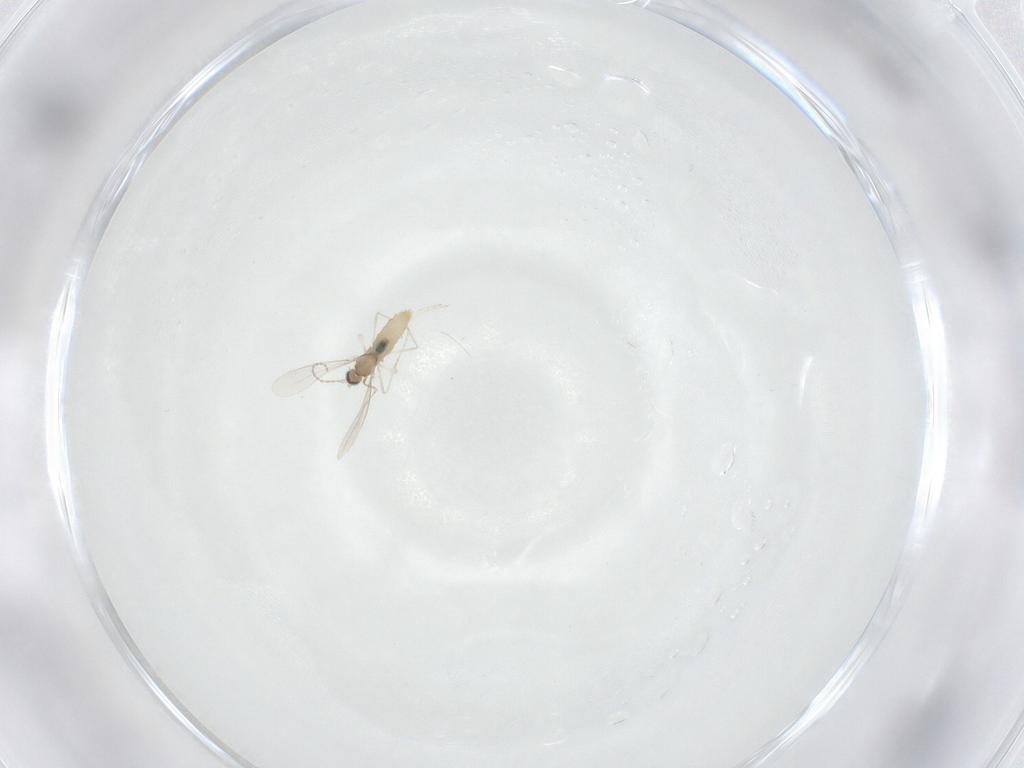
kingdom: Animalia
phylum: Arthropoda
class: Insecta
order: Diptera
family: Cecidomyiidae
